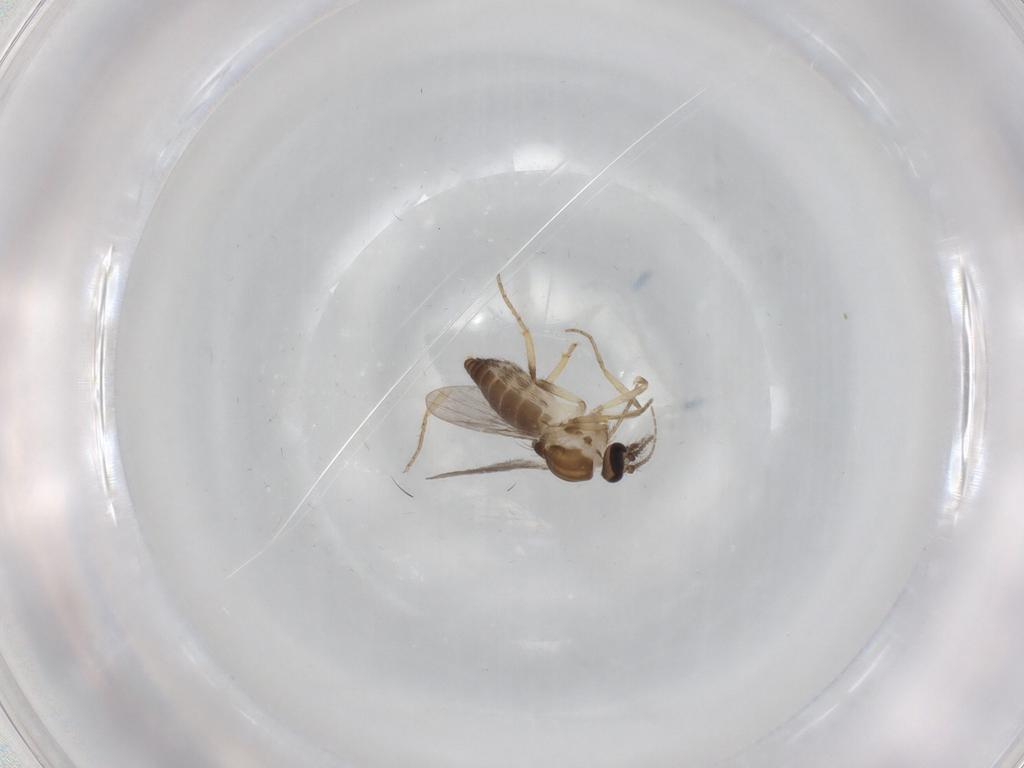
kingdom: Animalia
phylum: Arthropoda
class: Insecta
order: Diptera
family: Ceratopogonidae
